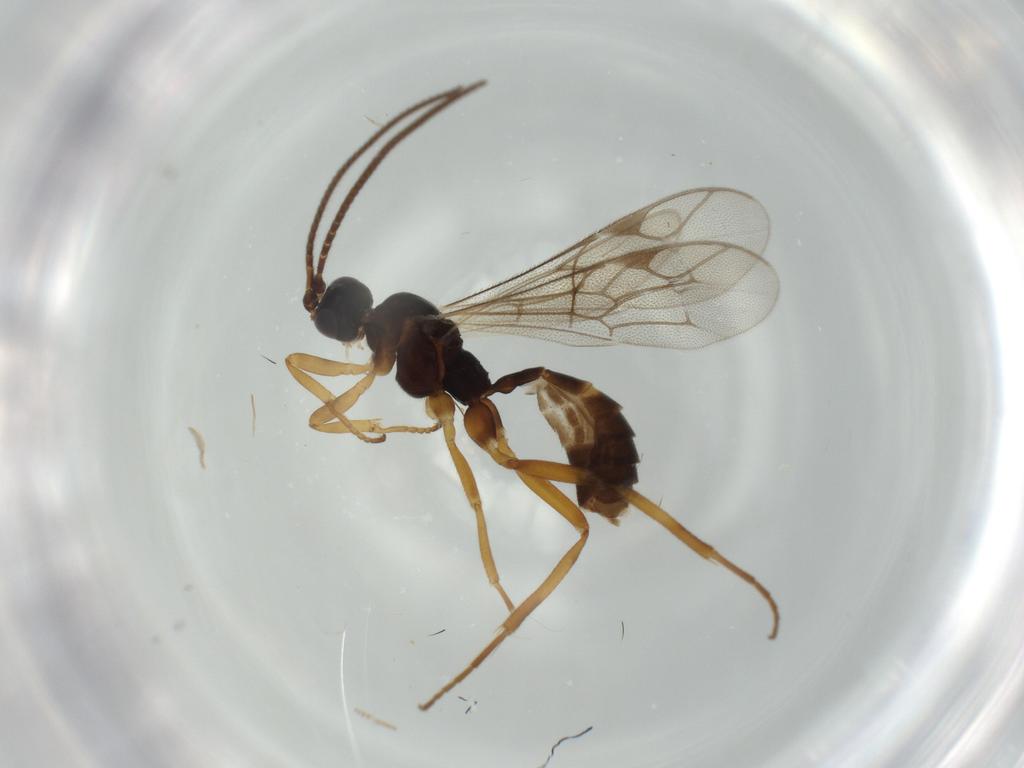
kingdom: Animalia
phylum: Arthropoda
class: Insecta
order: Hymenoptera
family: Ichneumonidae
